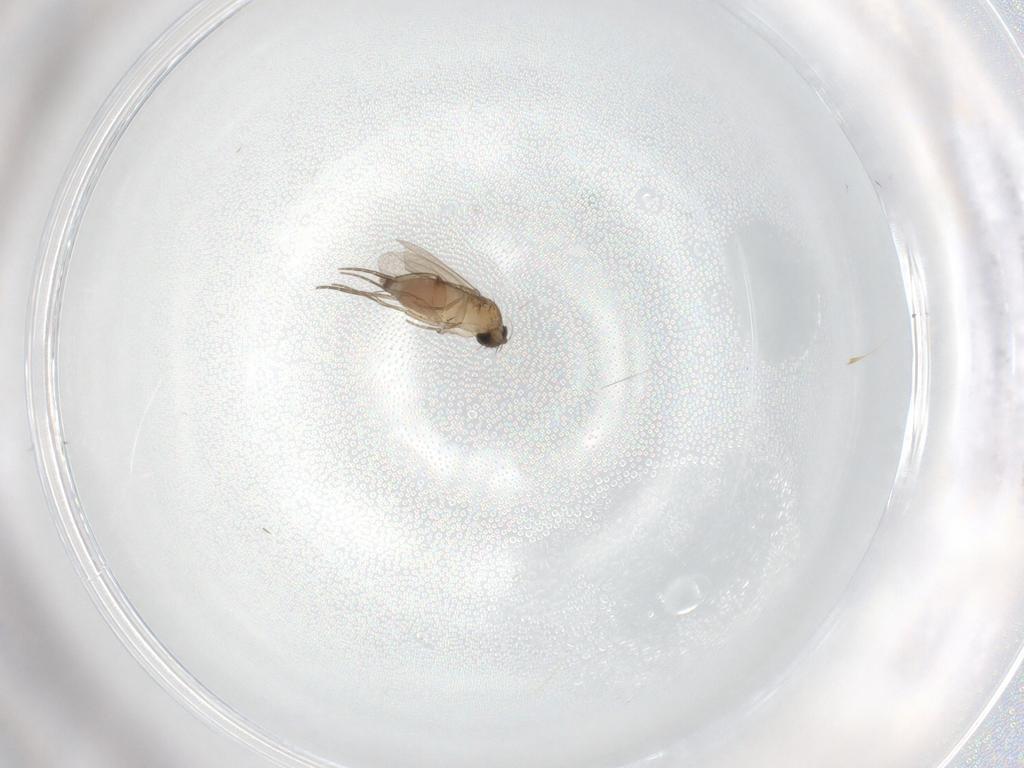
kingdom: Animalia
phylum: Arthropoda
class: Insecta
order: Diptera
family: Phoridae
